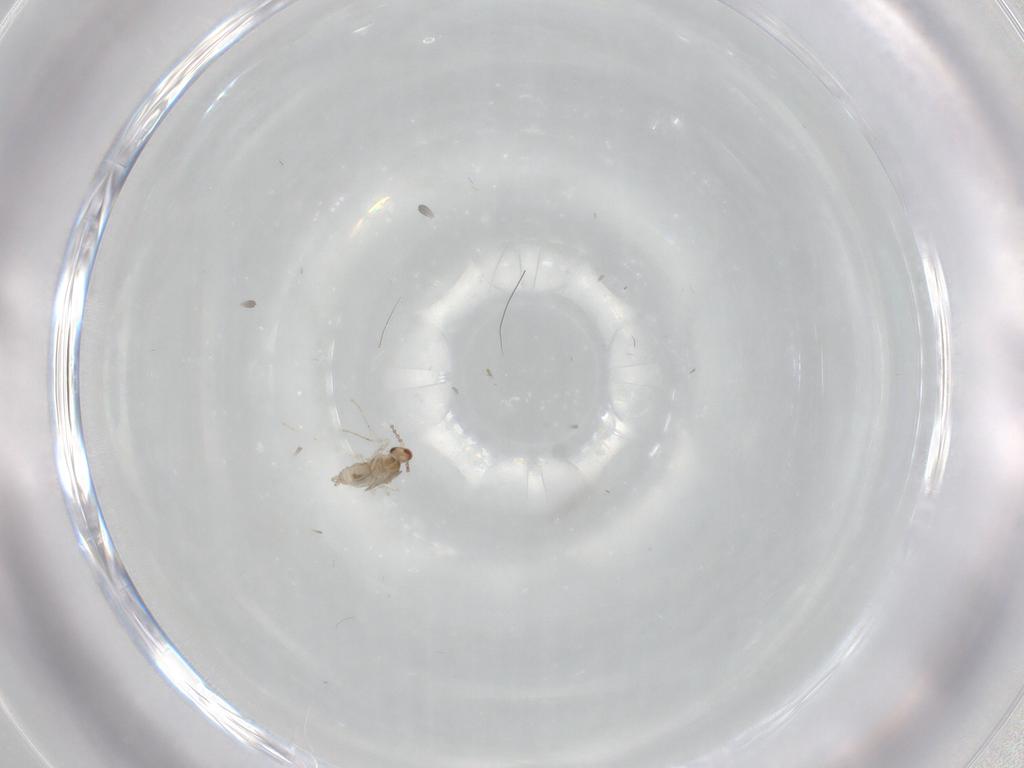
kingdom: Animalia
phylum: Arthropoda
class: Insecta
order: Diptera
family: Cecidomyiidae
